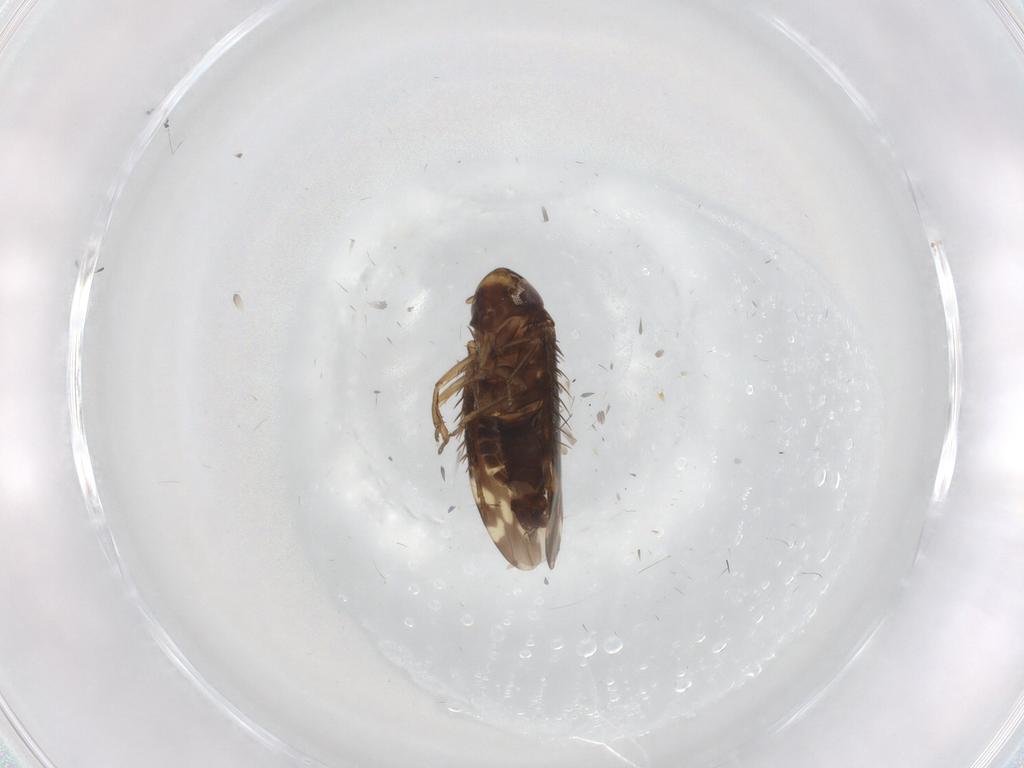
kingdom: Animalia
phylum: Arthropoda
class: Insecta
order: Hemiptera
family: Cicadellidae
